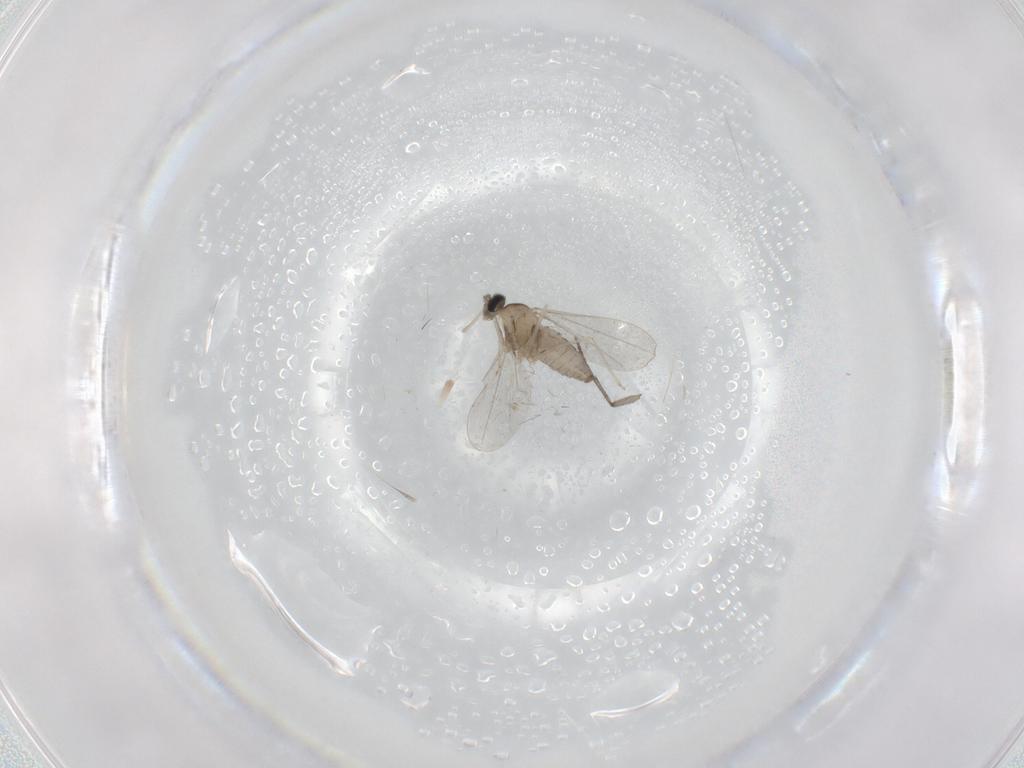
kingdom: Animalia
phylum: Arthropoda
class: Insecta
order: Diptera
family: Cecidomyiidae
